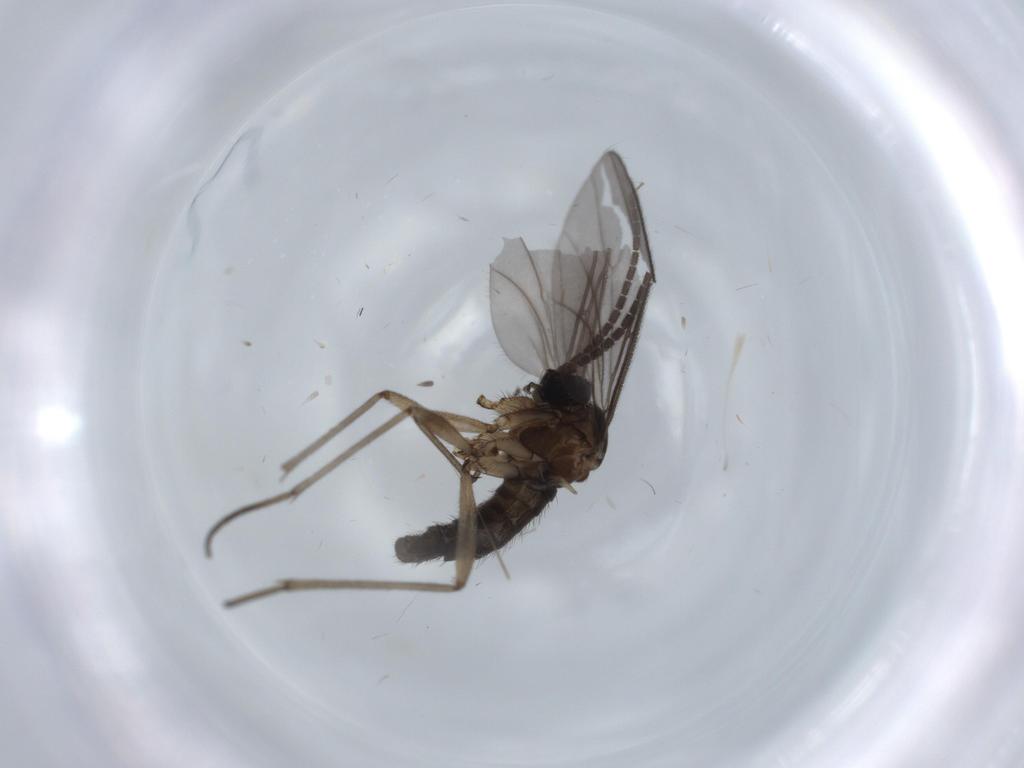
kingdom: Animalia
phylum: Arthropoda
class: Insecta
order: Diptera
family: Sciaridae
